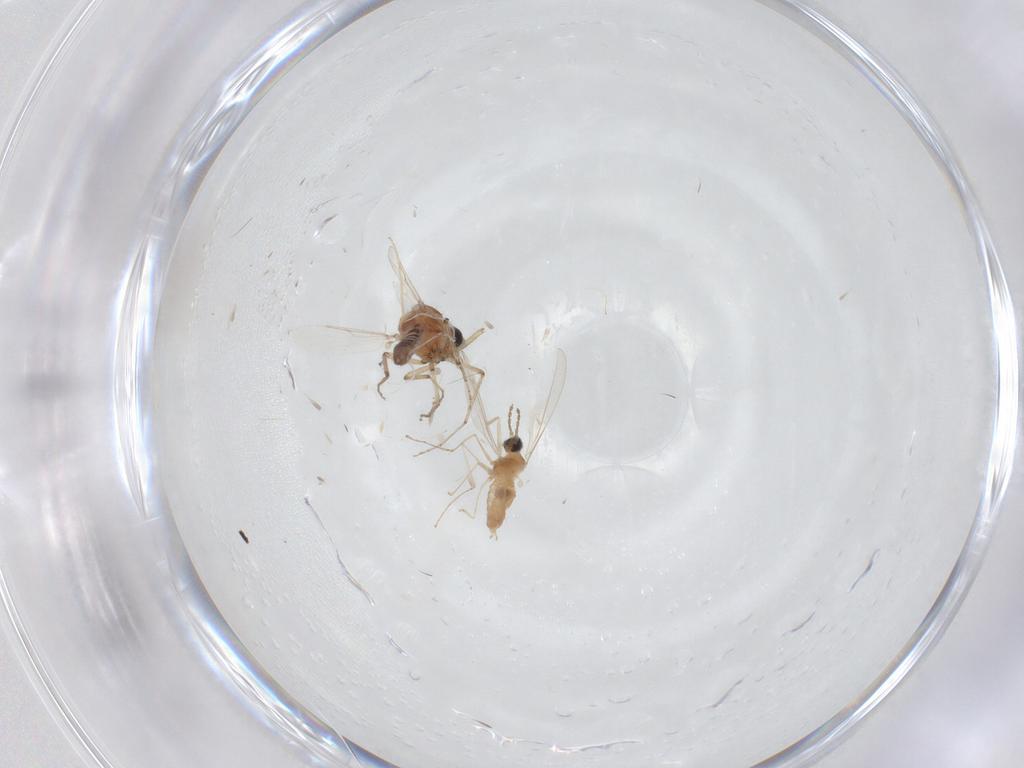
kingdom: Animalia
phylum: Arthropoda
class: Insecta
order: Diptera
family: Cecidomyiidae
